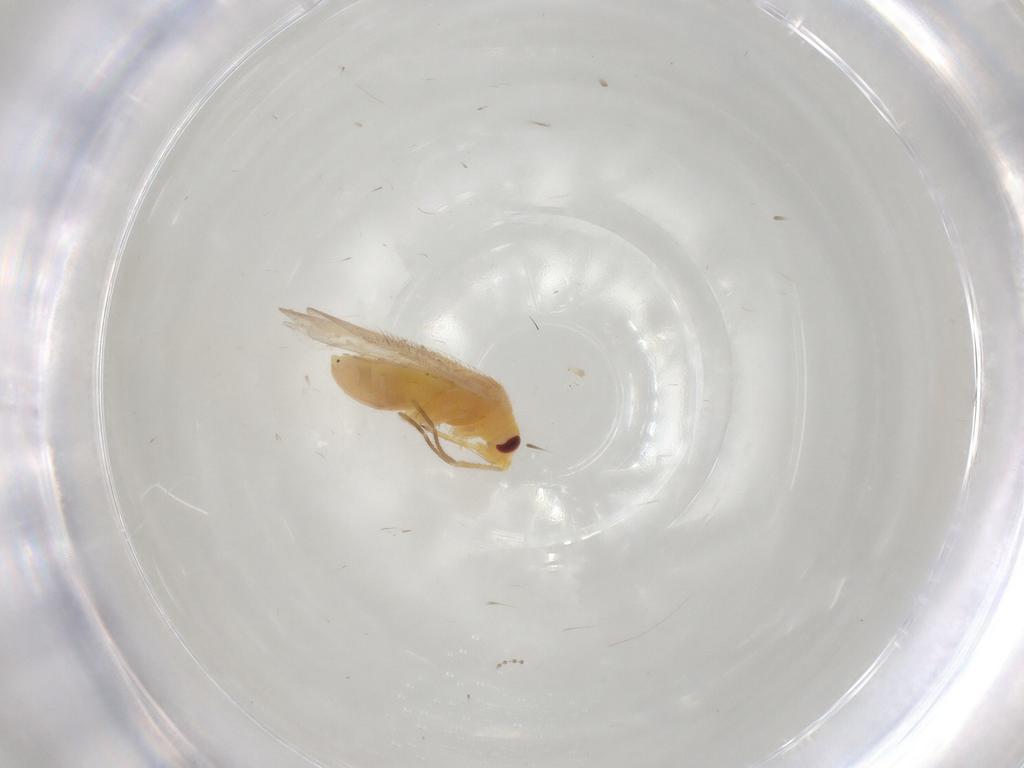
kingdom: Animalia
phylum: Arthropoda
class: Insecta
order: Hemiptera
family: Miridae
